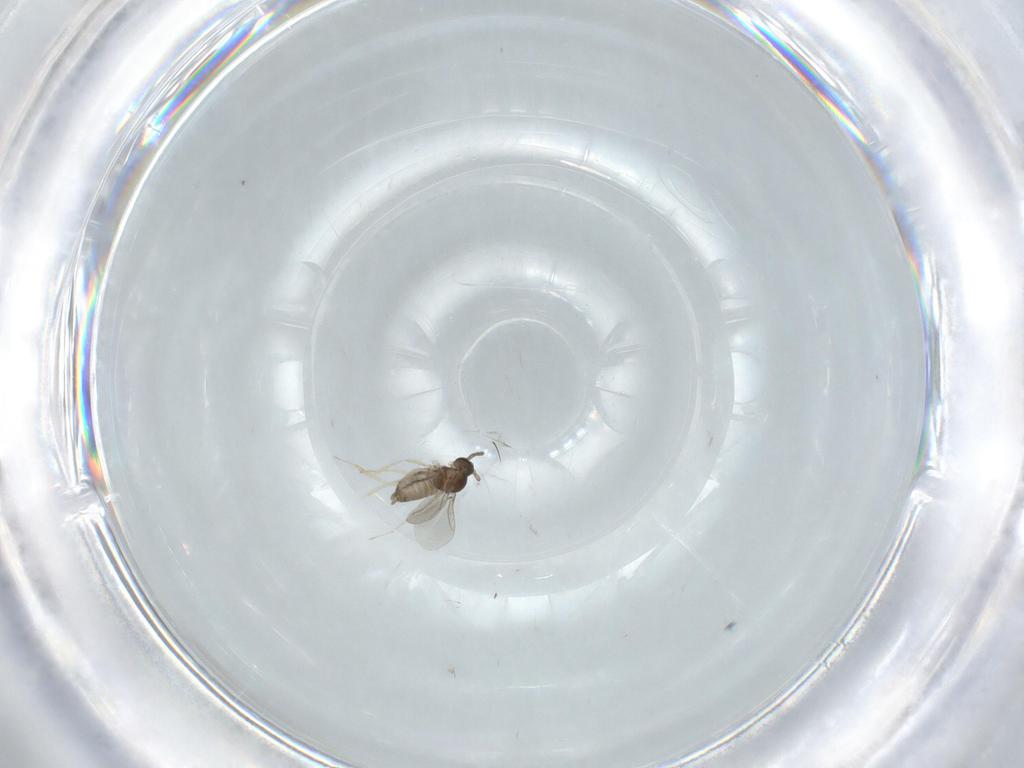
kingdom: Animalia
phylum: Arthropoda
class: Insecta
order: Diptera
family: Cecidomyiidae
